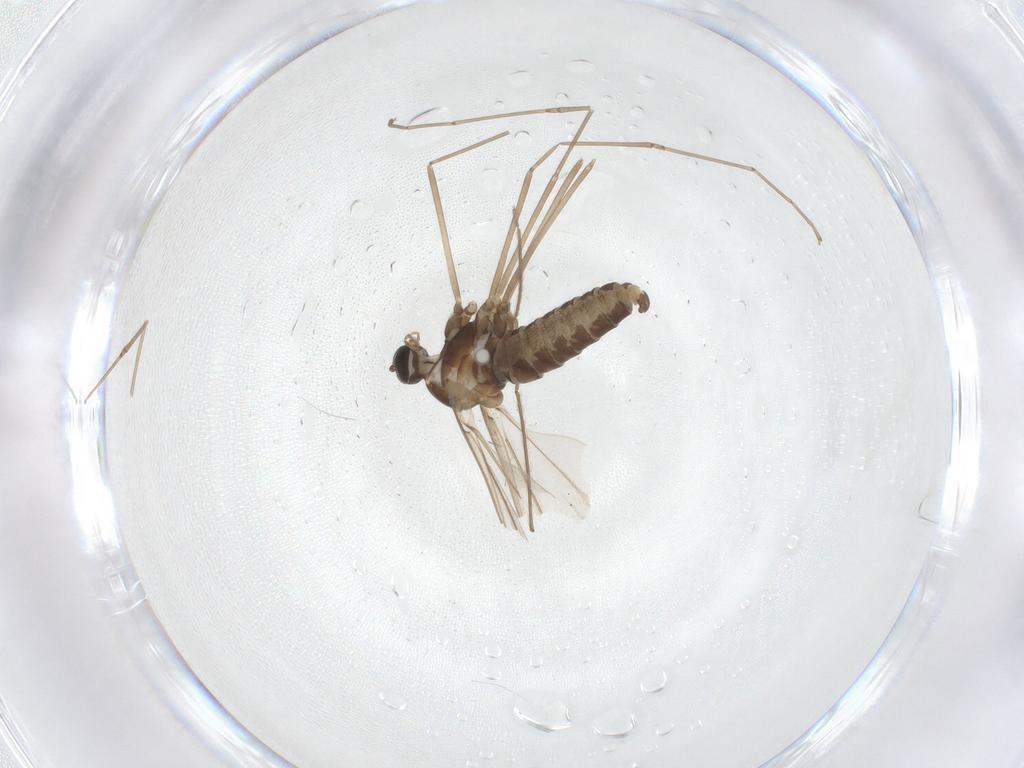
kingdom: Animalia
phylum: Arthropoda
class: Insecta
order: Diptera
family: Cecidomyiidae
